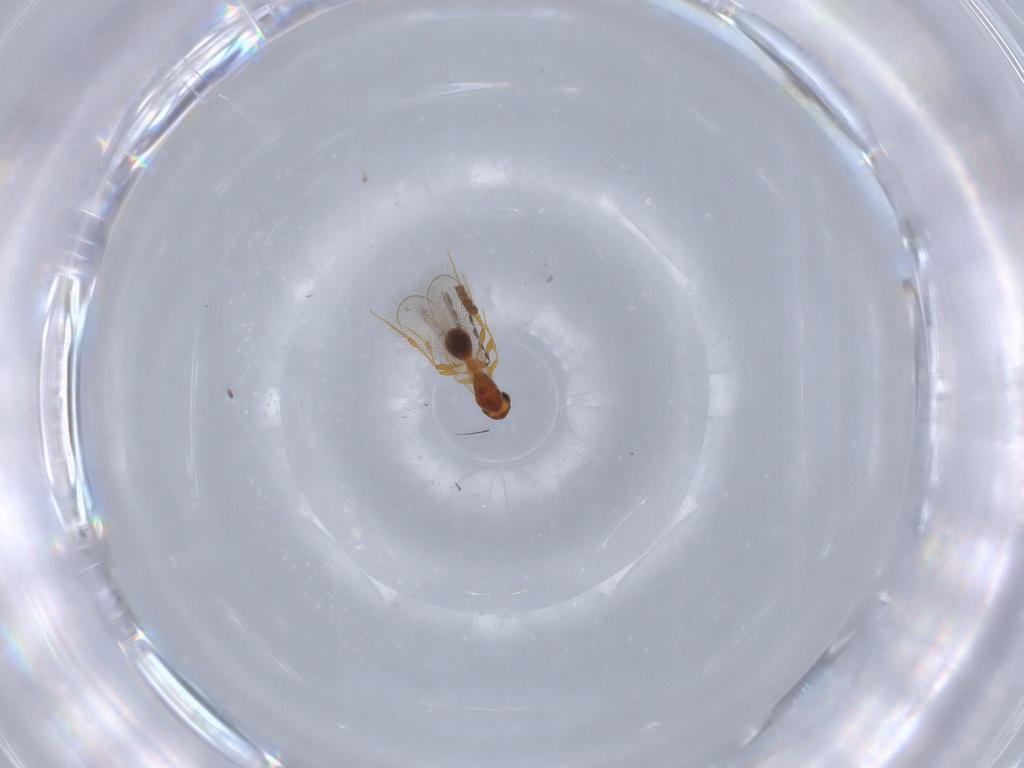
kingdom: Animalia
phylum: Arthropoda
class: Insecta
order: Hymenoptera
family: Ichneumonidae
